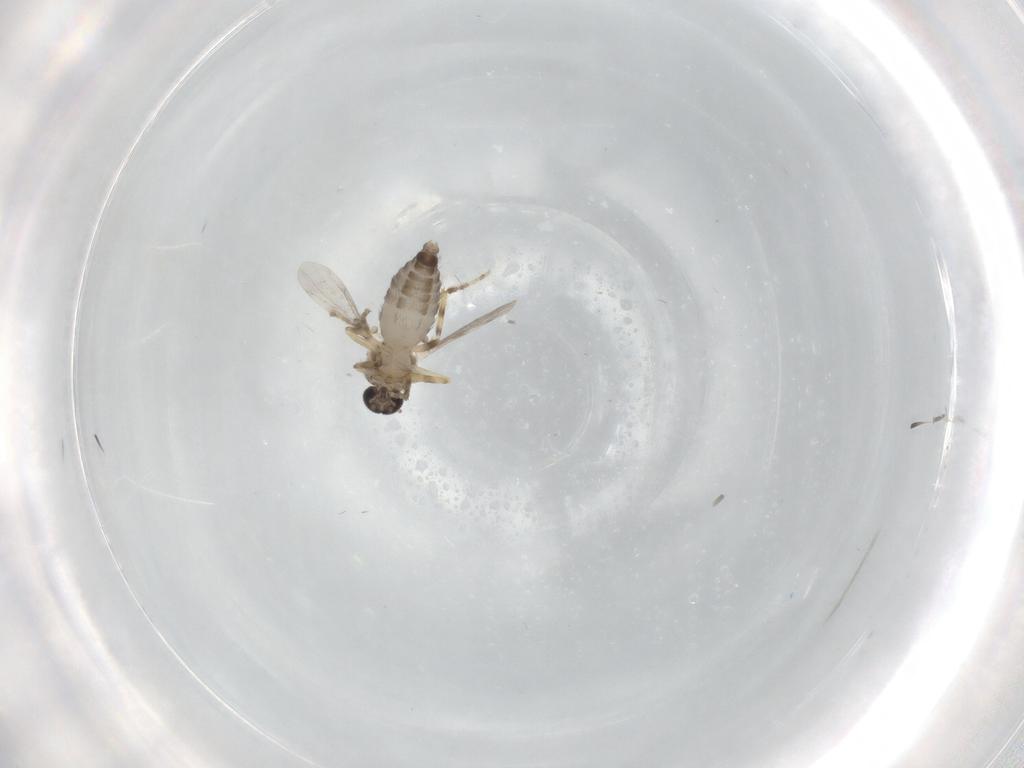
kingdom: Animalia
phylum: Arthropoda
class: Insecta
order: Diptera
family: Ceratopogonidae
